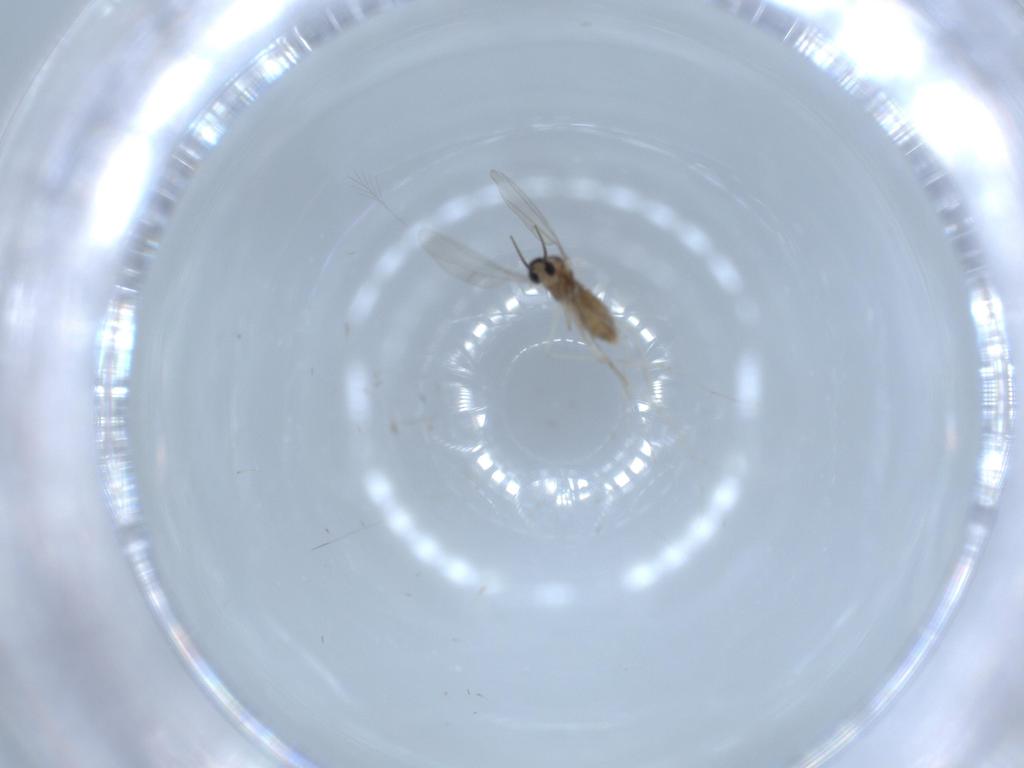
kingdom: Animalia
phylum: Arthropoda
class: Insecta
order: Diptera
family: Cecidomyiidae
